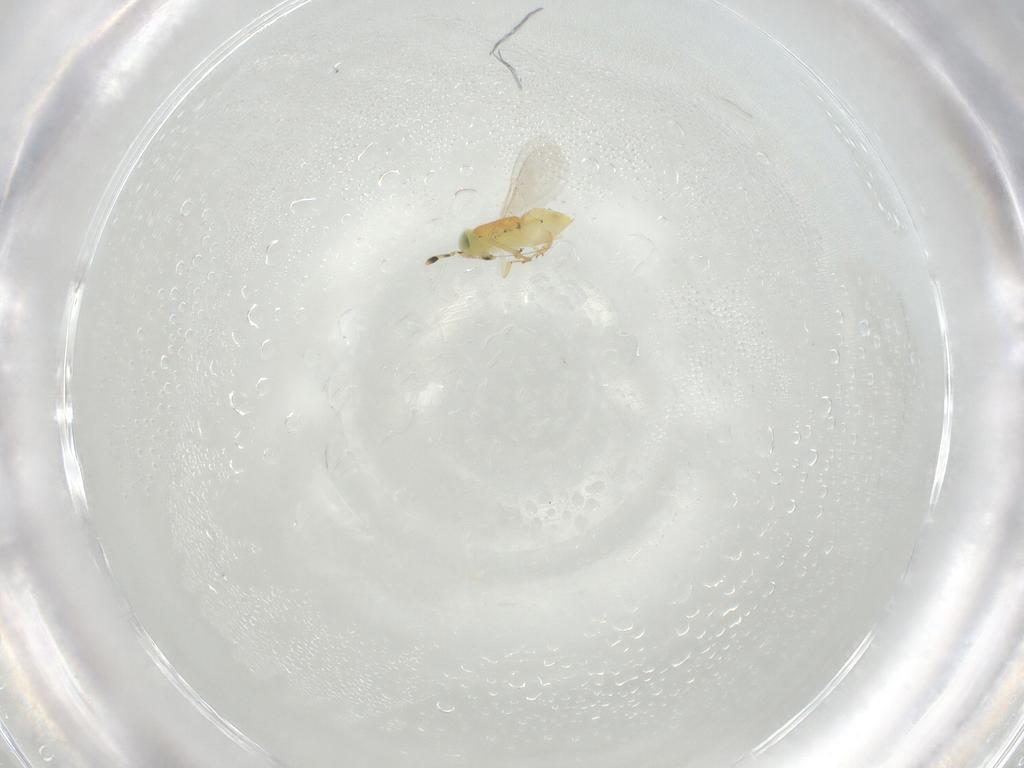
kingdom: Animalia
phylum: Arthropoda
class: Insecta
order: Hymenoptera
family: Encyrtidae
